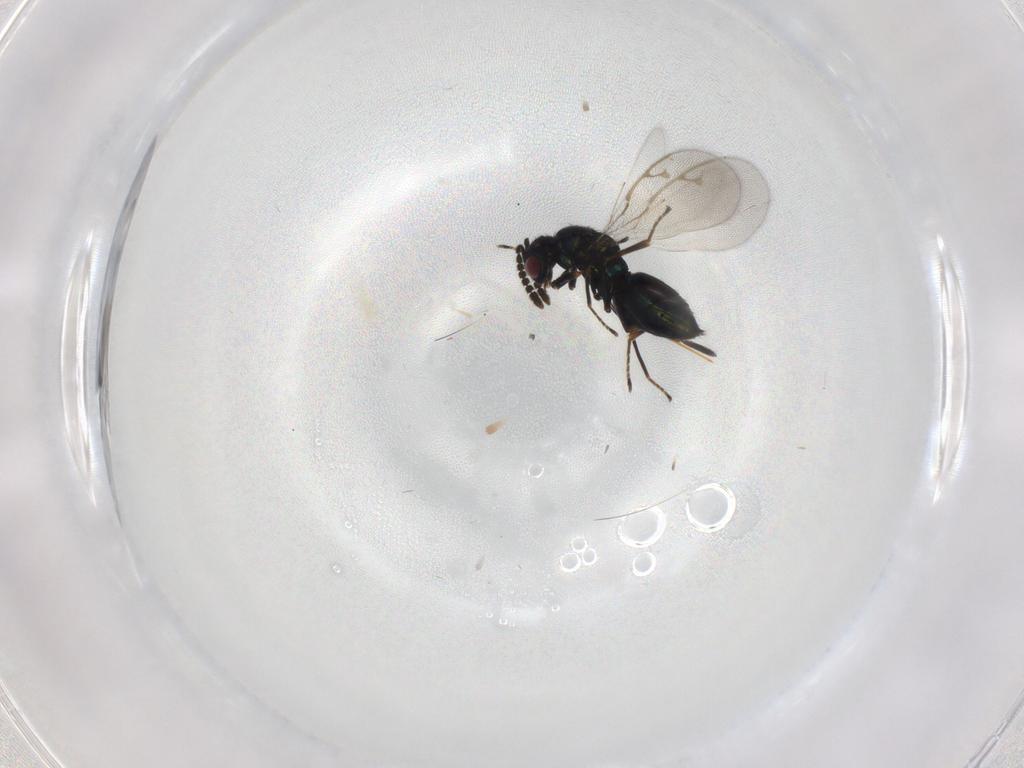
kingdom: Animalia
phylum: Arthropoda
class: Insecta
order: Hymenoptera
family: Pirenidae
